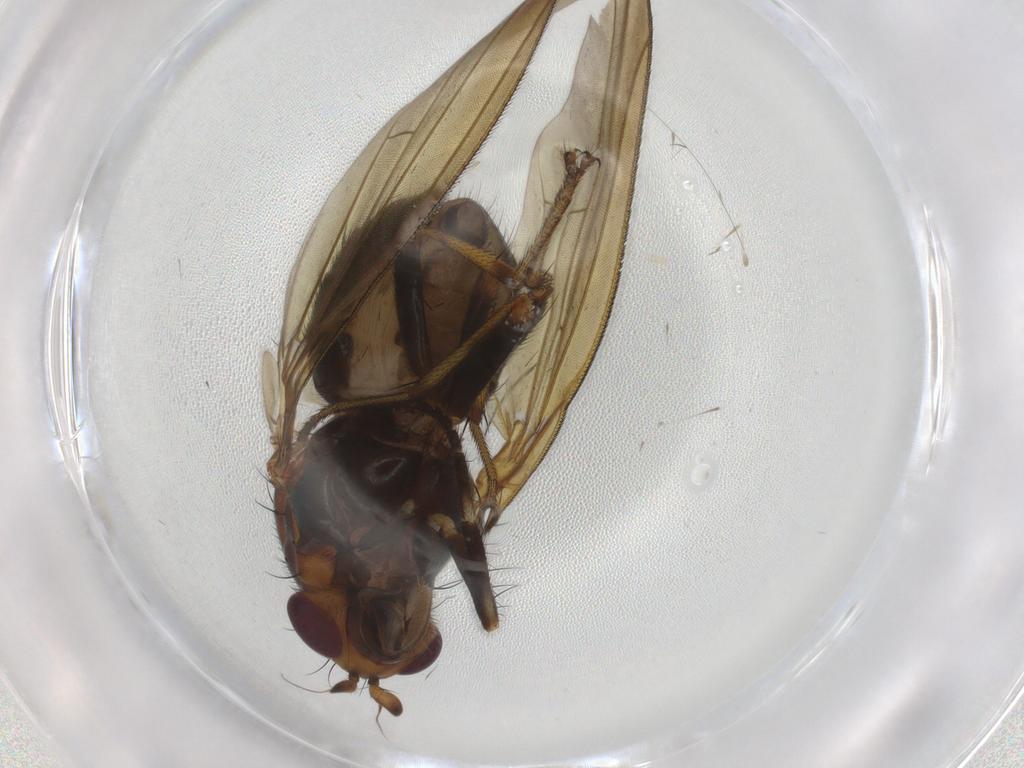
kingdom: Animalia
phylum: Arthropoda
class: Insecta
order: Diptera
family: Chironomidae
